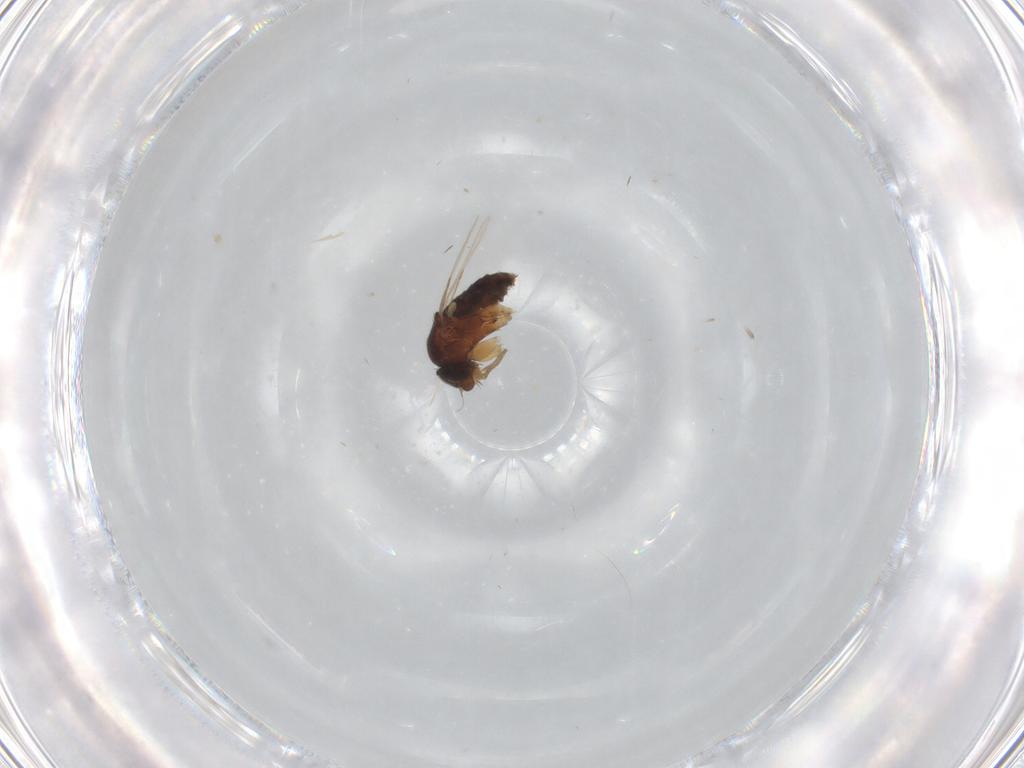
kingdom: Animalia
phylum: Arthropoda
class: Insecta
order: Diptera
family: Phoridae
